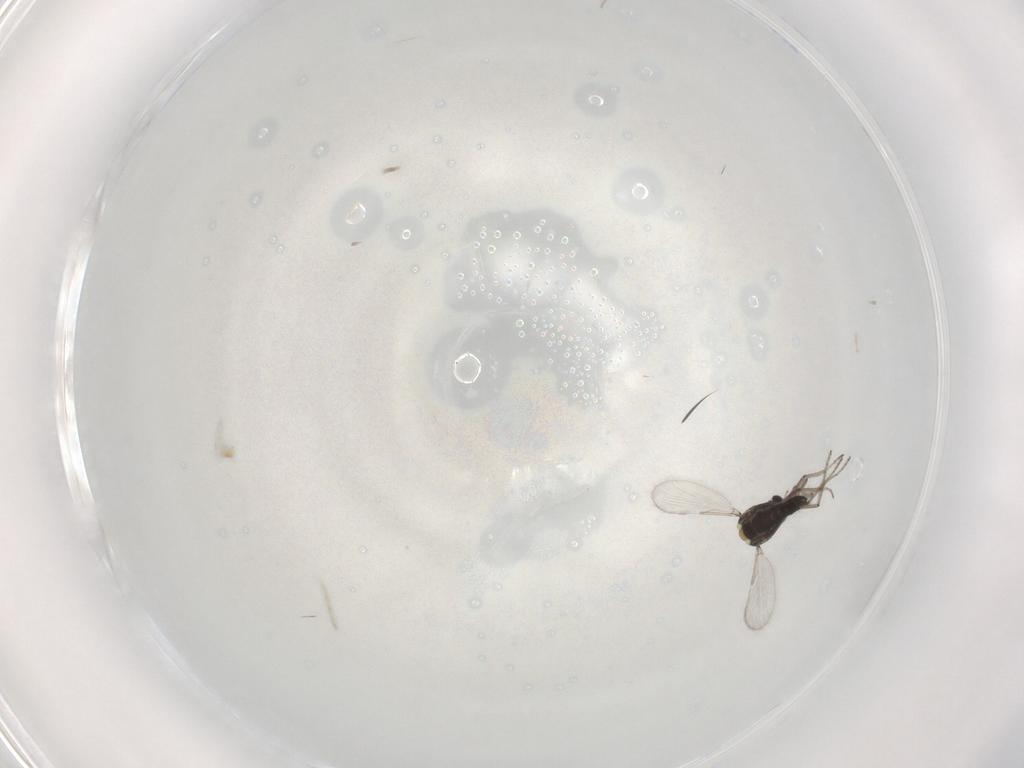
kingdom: Animalia
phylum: Arthropoda
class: Insecta
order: Diptera
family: Ceratopogonidae
